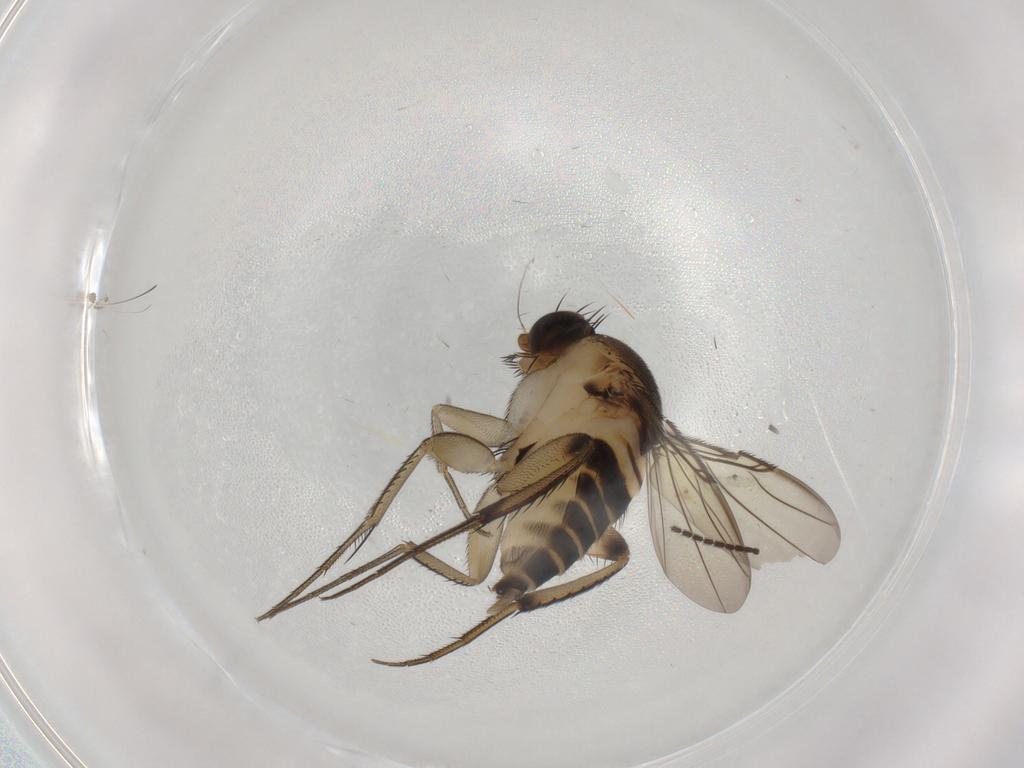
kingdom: Animalia
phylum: Arthropoda
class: Insecta
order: Diptera
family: Phoridae
